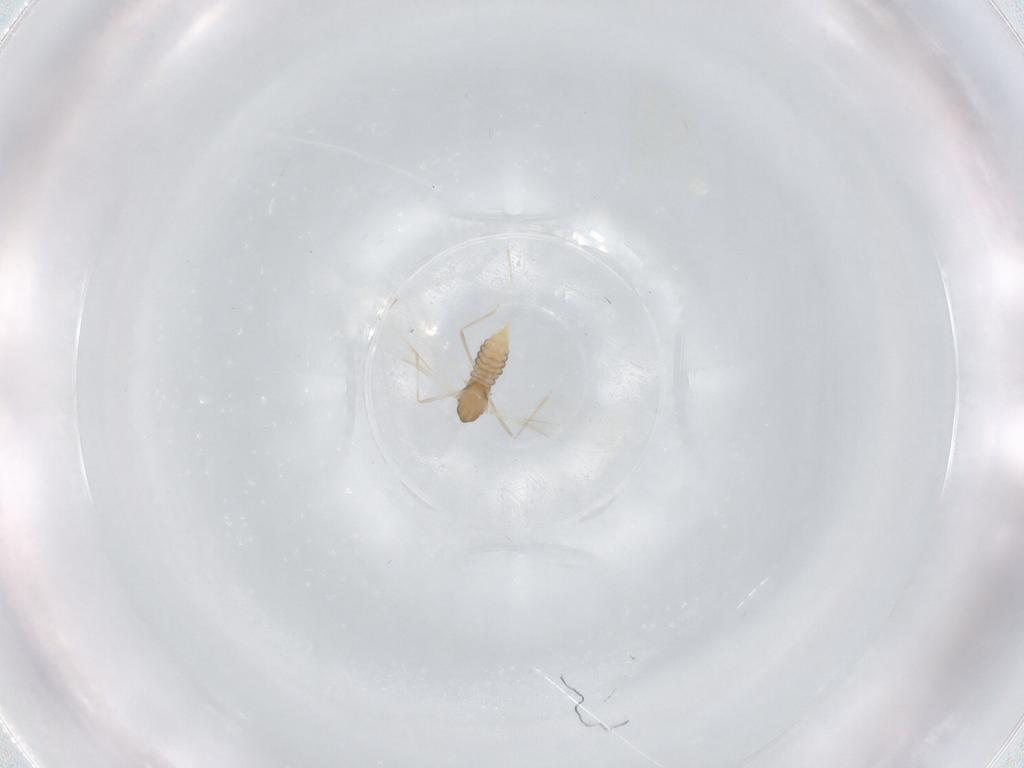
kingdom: Animalia
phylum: Arthropoda
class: Insecta
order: Diptera
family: Cecidomyiidae
